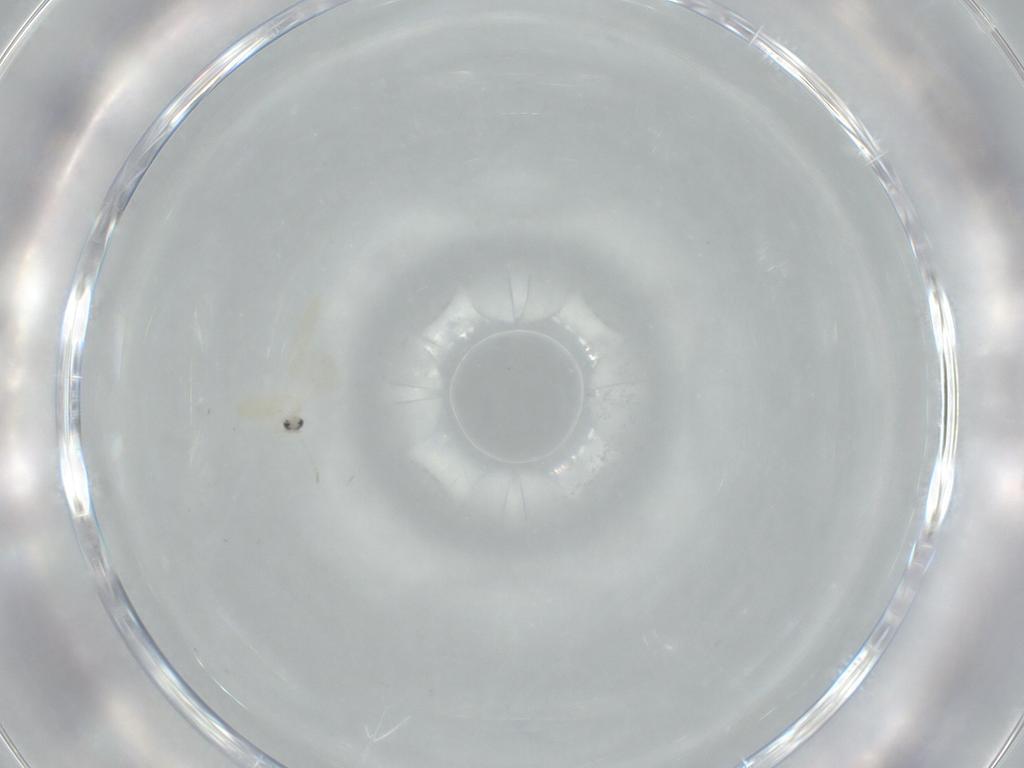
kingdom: Animalia
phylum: Arthropoda
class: Insecta
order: Diptera
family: Cecidomyiidae
